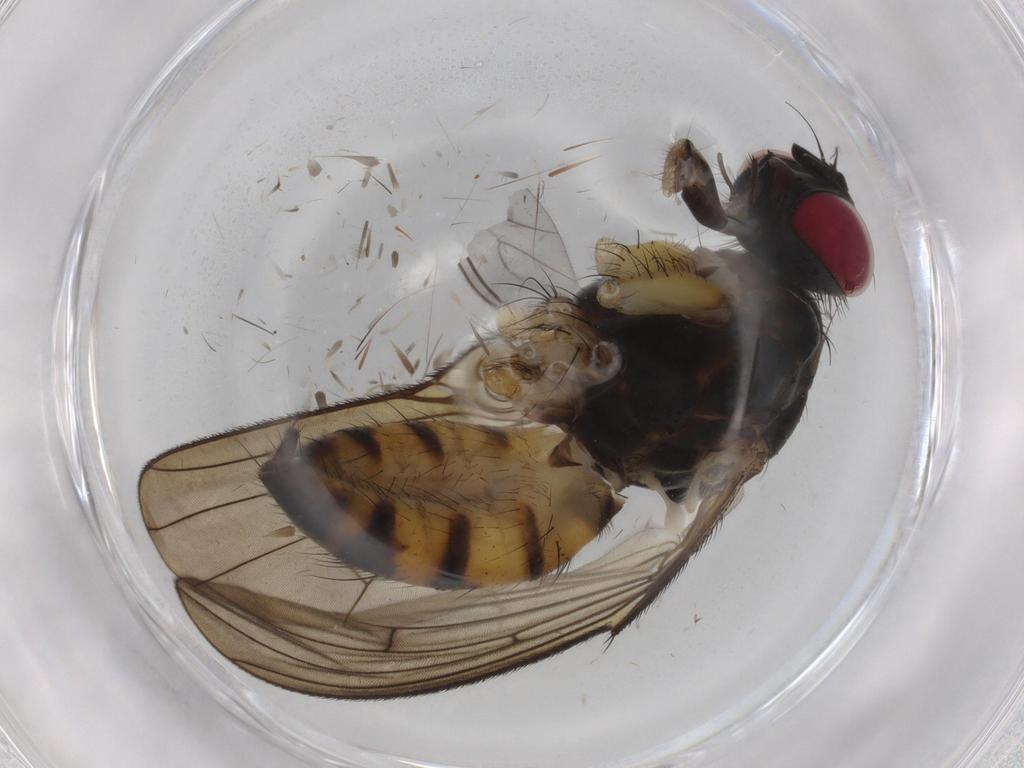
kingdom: Animalia
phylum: Arthropoda
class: Insecta
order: Diptera
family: Muscidae
